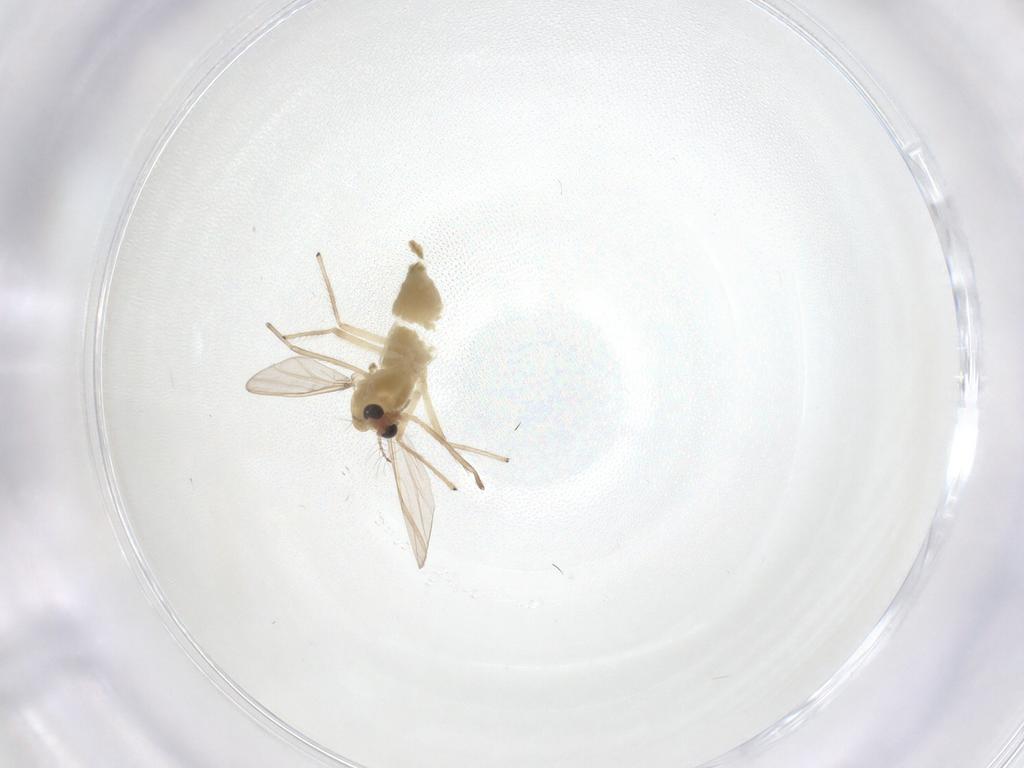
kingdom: Animalia
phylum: Arthropoda
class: Insecta
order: Diptera
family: Chironomidae
